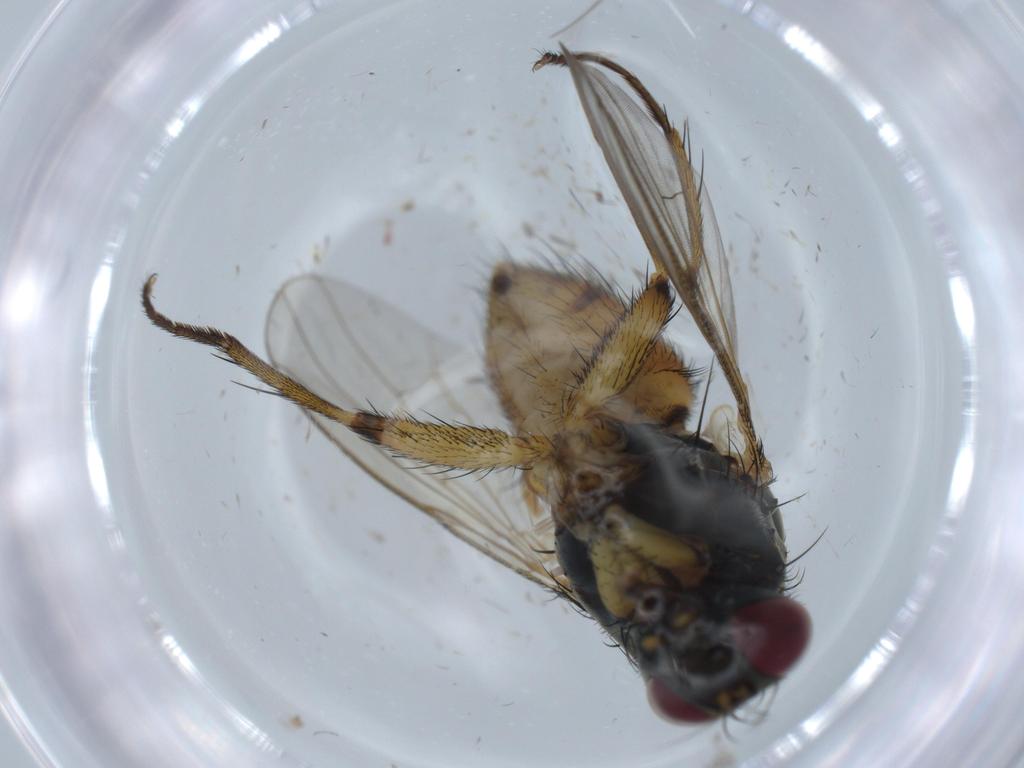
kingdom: Animalia
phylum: Arthropoda
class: Insecta
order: Diptera
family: Muscidae
